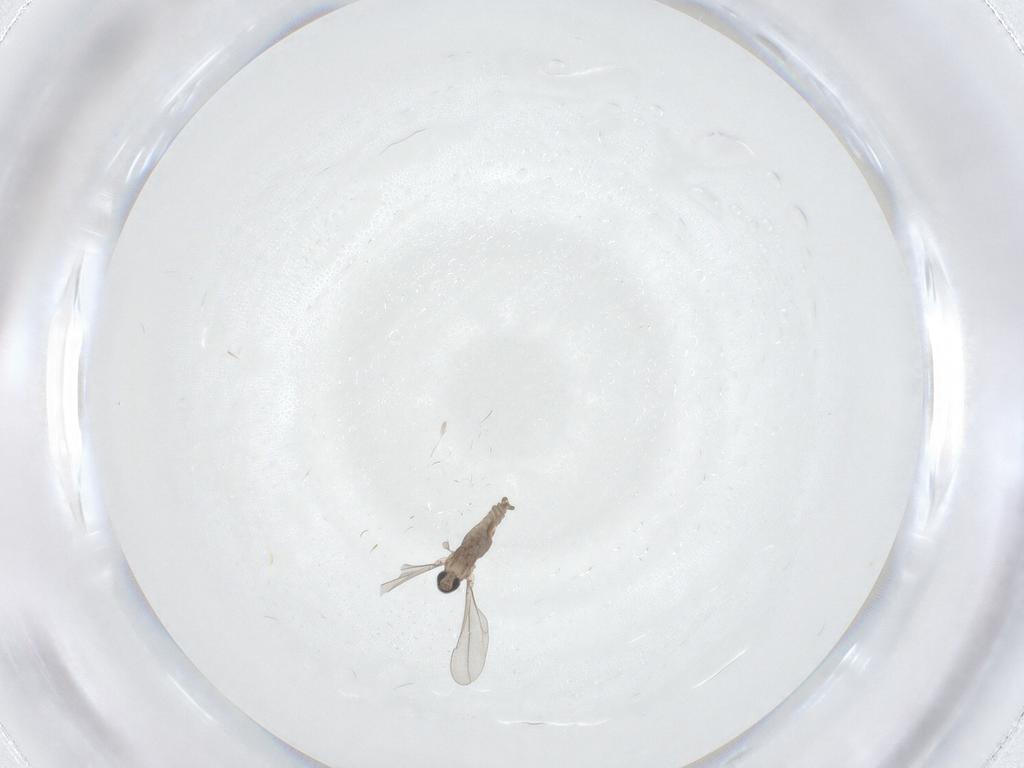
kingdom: Animalia
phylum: Arthropoda
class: Insecta
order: Diptera
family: Cecidomyiidae
